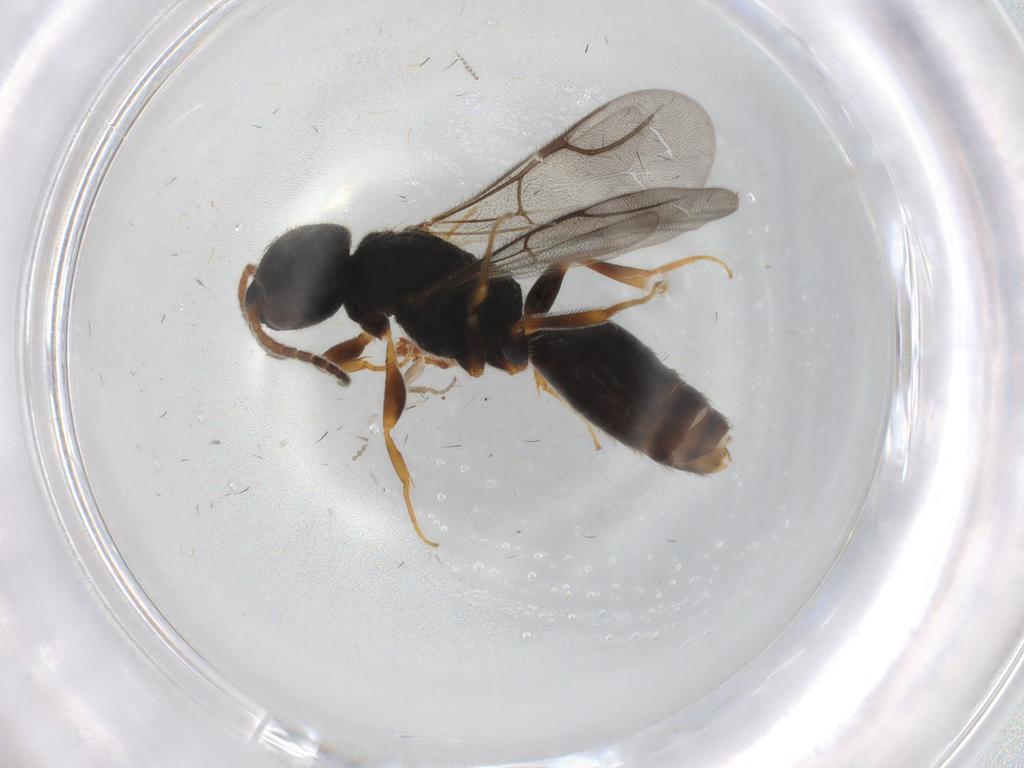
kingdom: Animalia
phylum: Arthropoda
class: Insecta
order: Hymenoptera
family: Bethylidae
